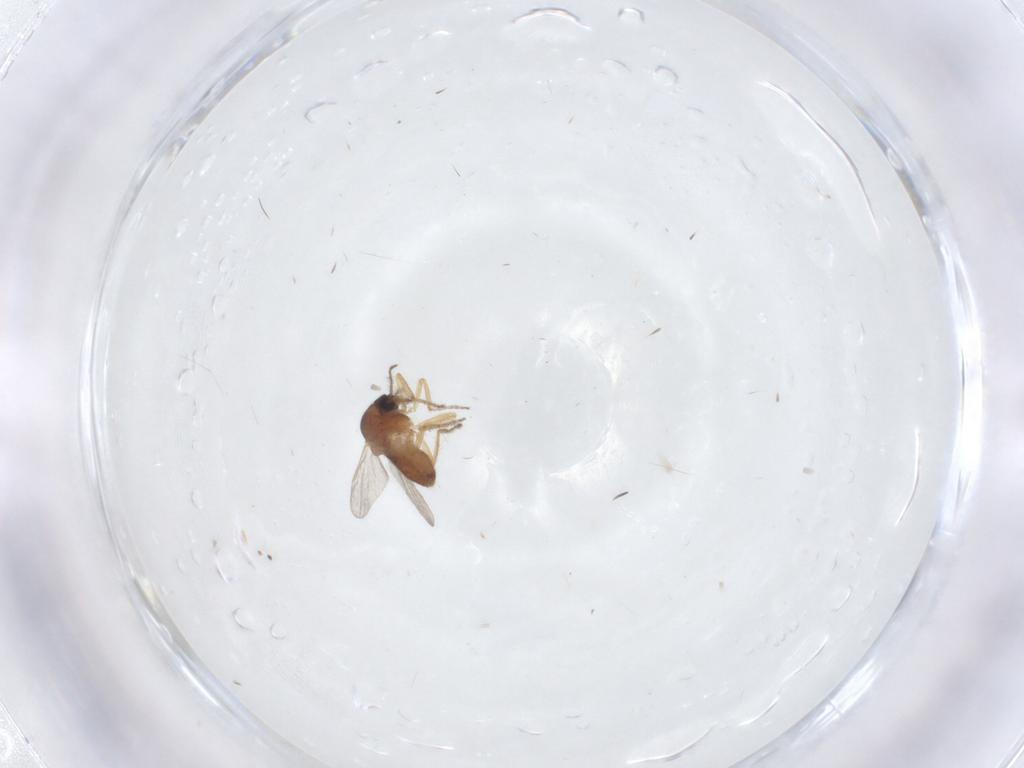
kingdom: Animalia
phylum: Arthropoda
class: Insecta
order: Diptera
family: Ceratopogonidae
